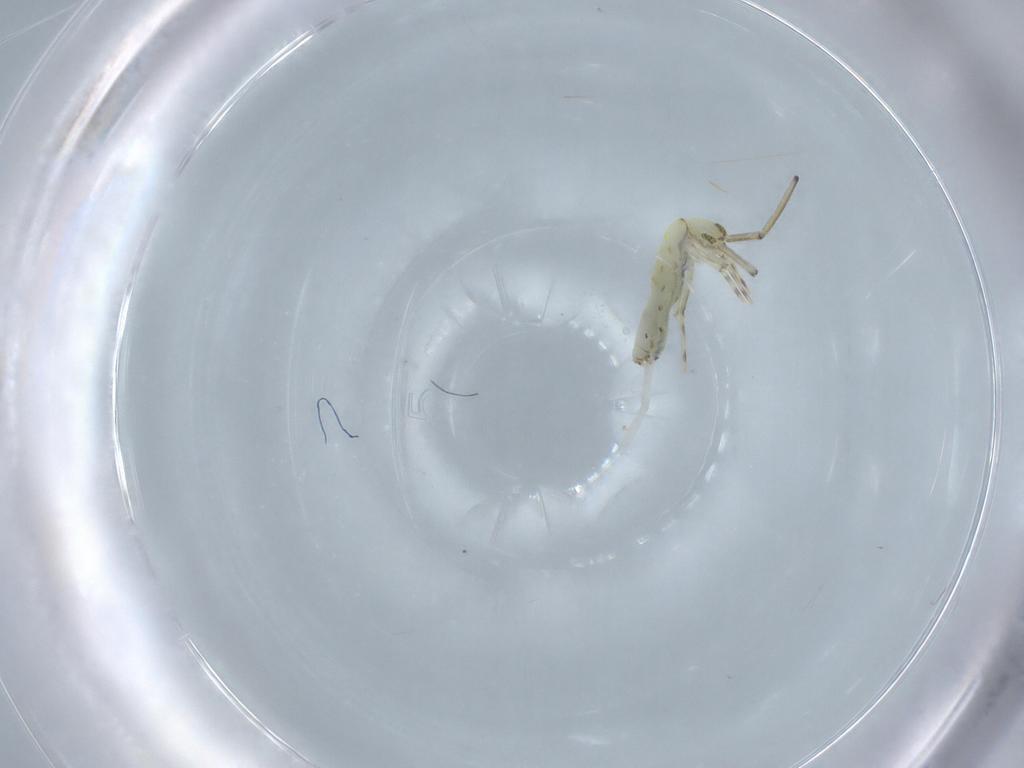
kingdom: Animalia
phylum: Arthropoda
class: Collembola
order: Entomobryomorpha
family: Paronellidae
